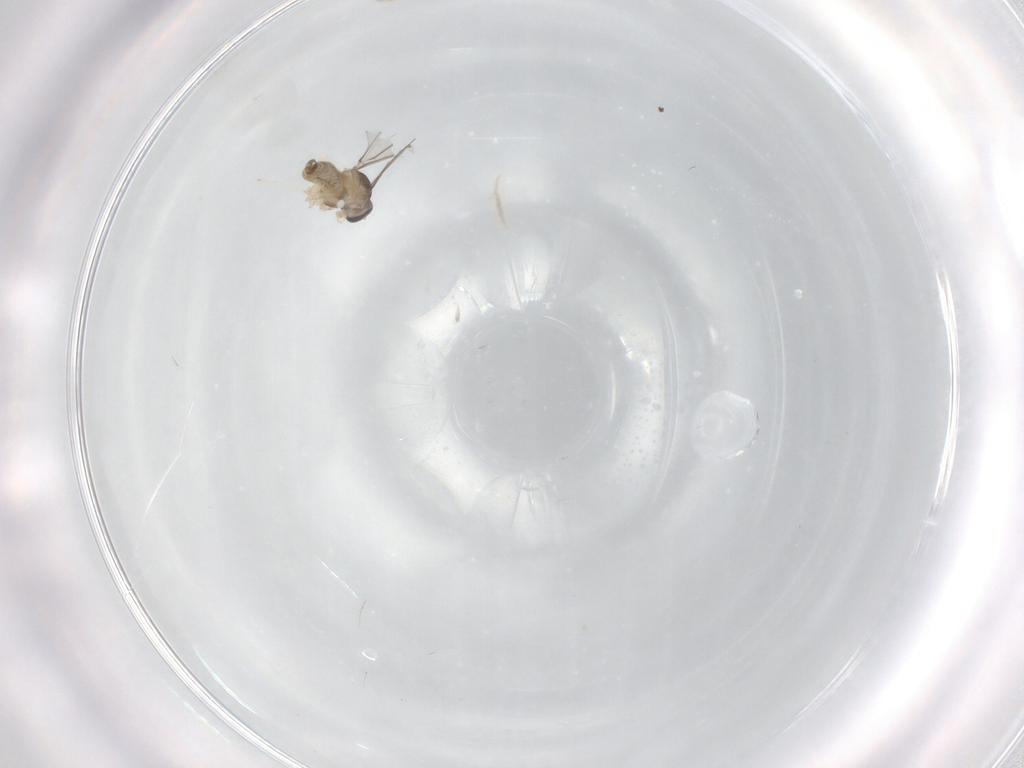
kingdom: Animalia
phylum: Arthropoda
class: Insecta
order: Diptera
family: Cecidomyiidae
